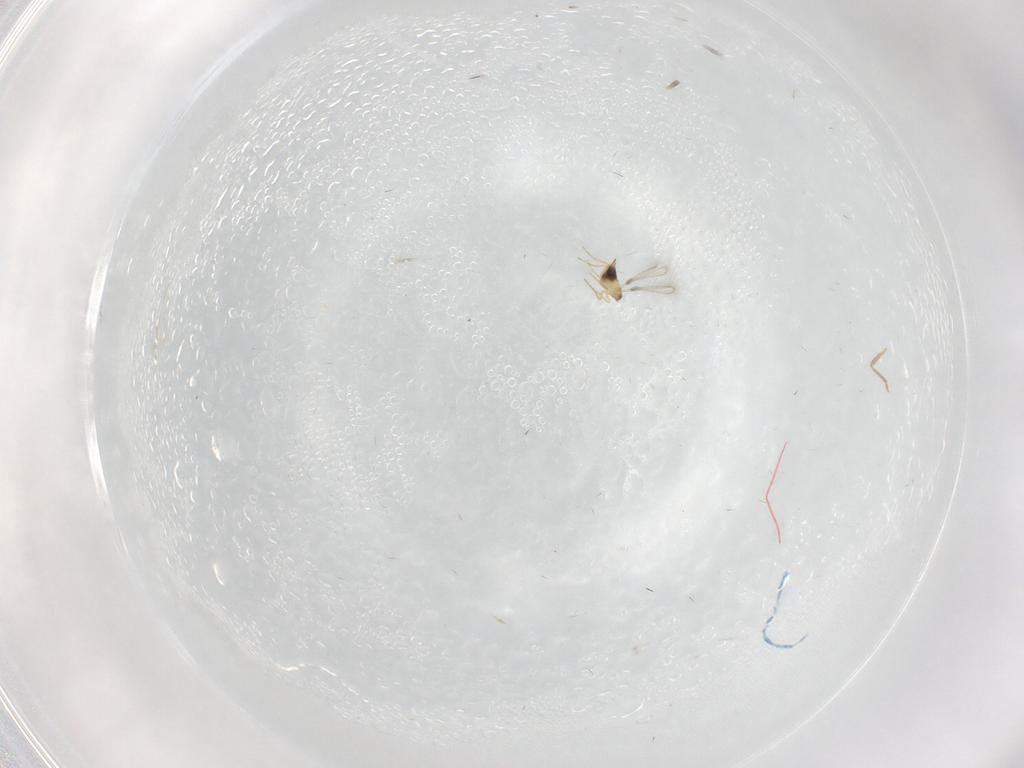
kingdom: Animalia
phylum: Arthropoda
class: Insecta
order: Hymenoptera
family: Mymaridae
